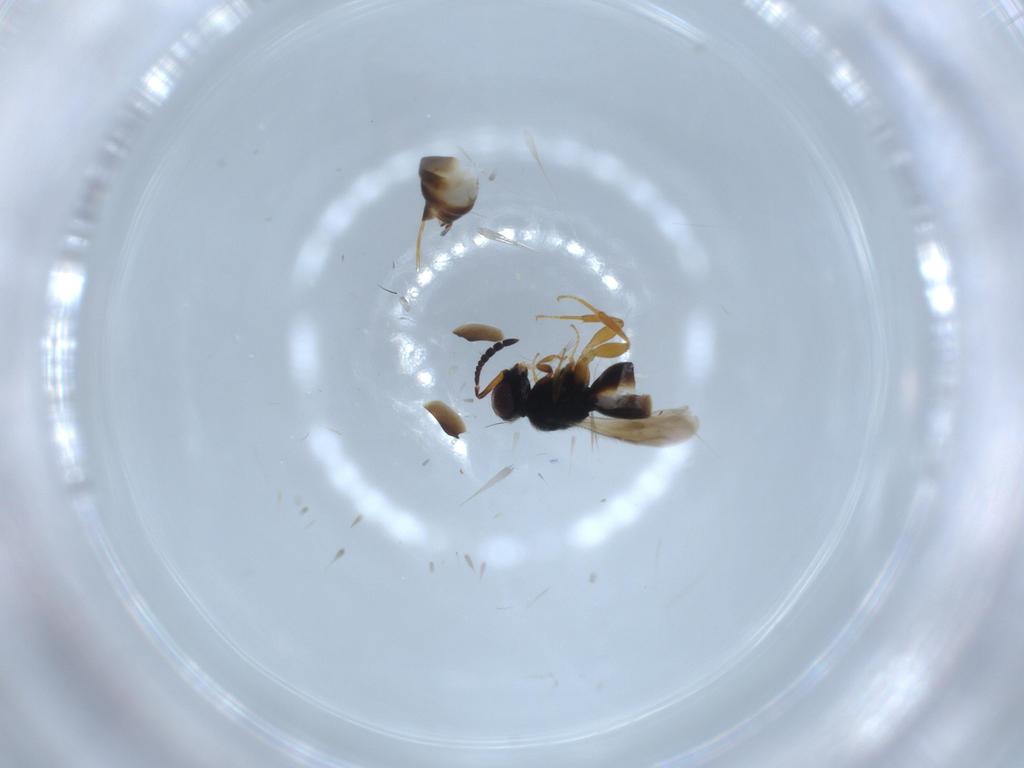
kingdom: Animalia
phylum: Arthropoda
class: Insecta
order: Hymenoptera
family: Ceraphronidae
